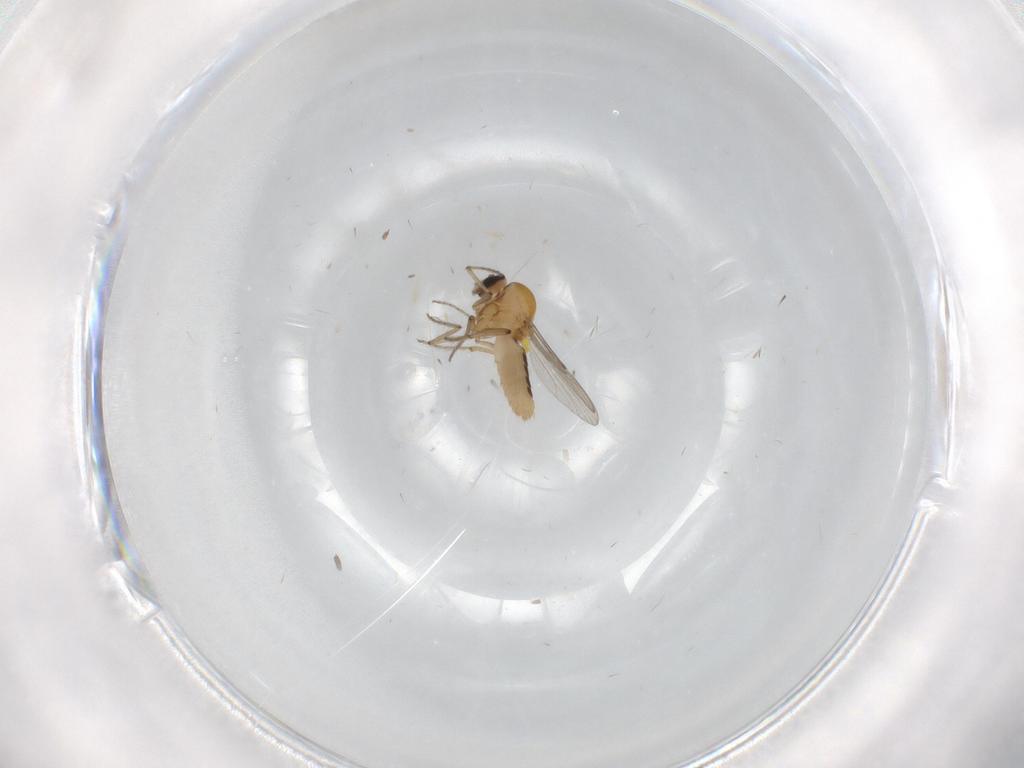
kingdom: Animalia
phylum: Arthropoda
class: Insecta
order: Diptera
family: Ceratopogonidae
